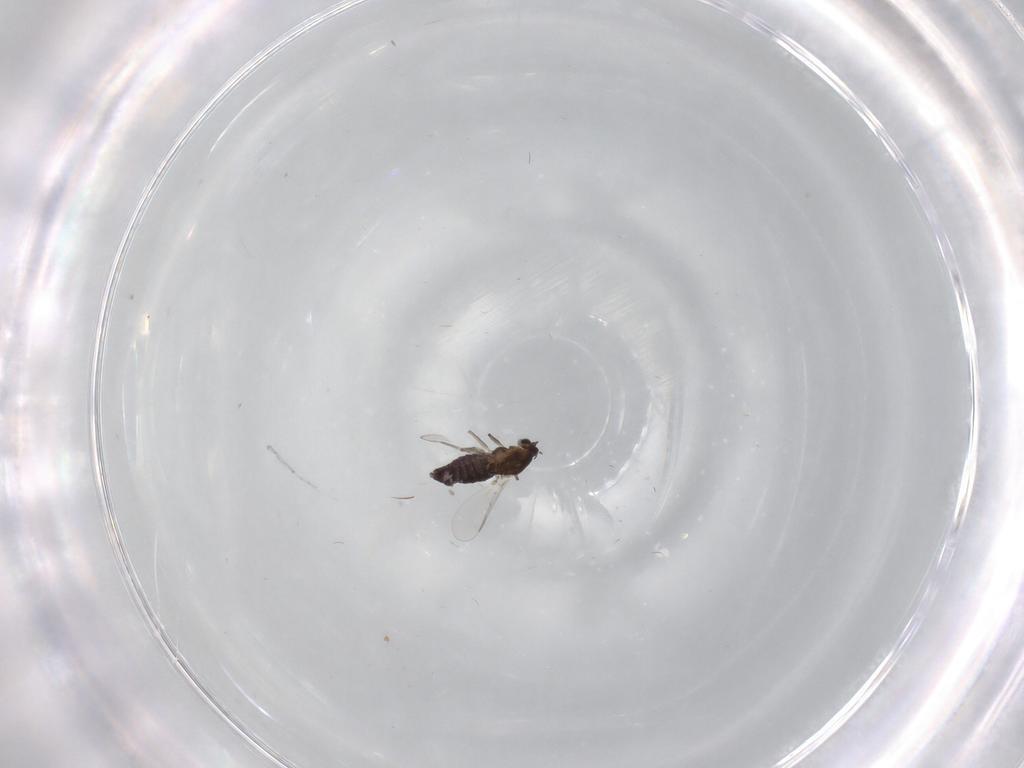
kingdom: Animalia
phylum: Arthropoda
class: Insecta
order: Diptera
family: Chironomidae
